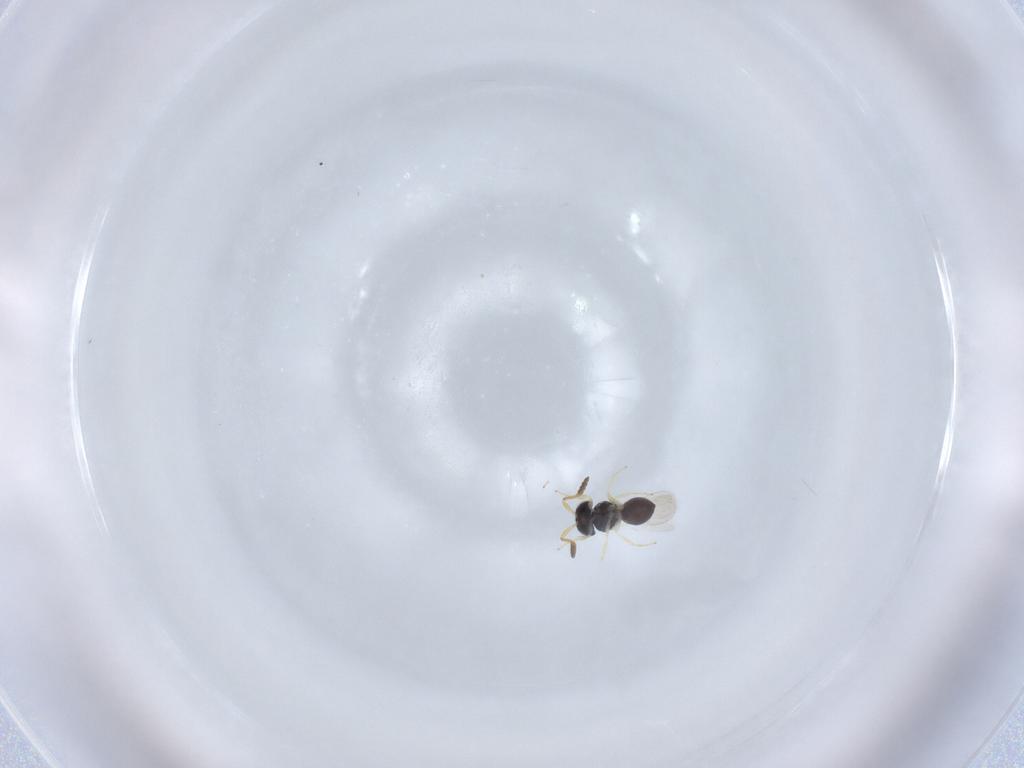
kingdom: Animalia
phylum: Arthropoda
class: Insecta
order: Hymenoptera
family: Scelionidae
